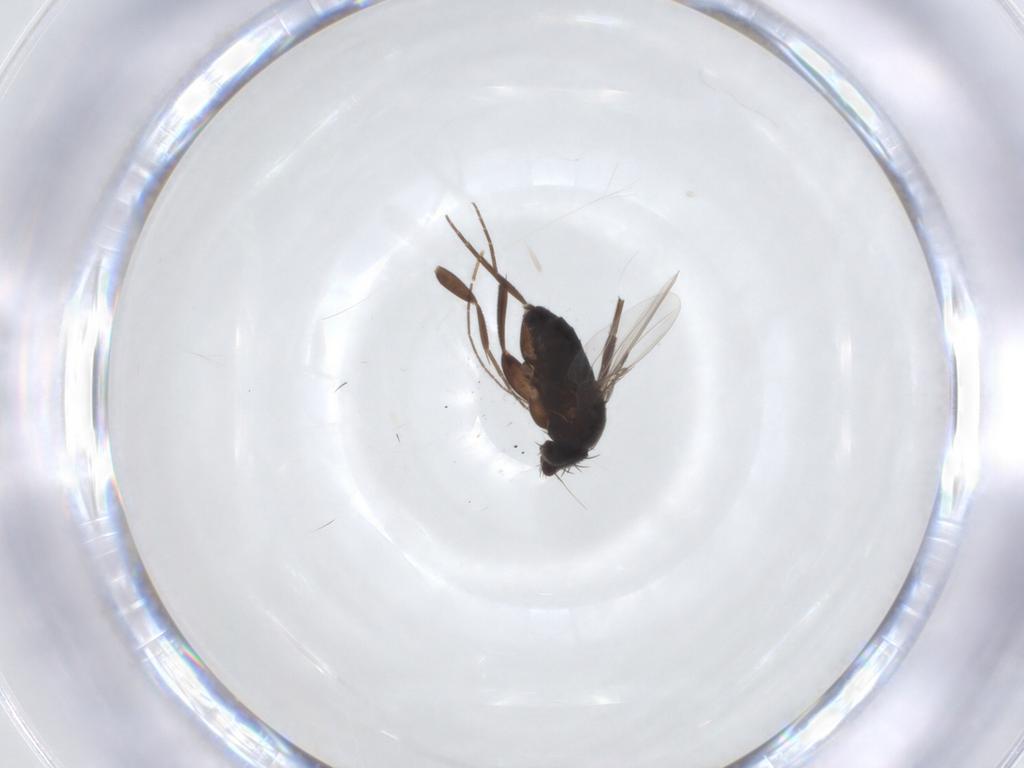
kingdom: Animalia
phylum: Arthropoda
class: Insecta
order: Diptera
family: Phoridae
